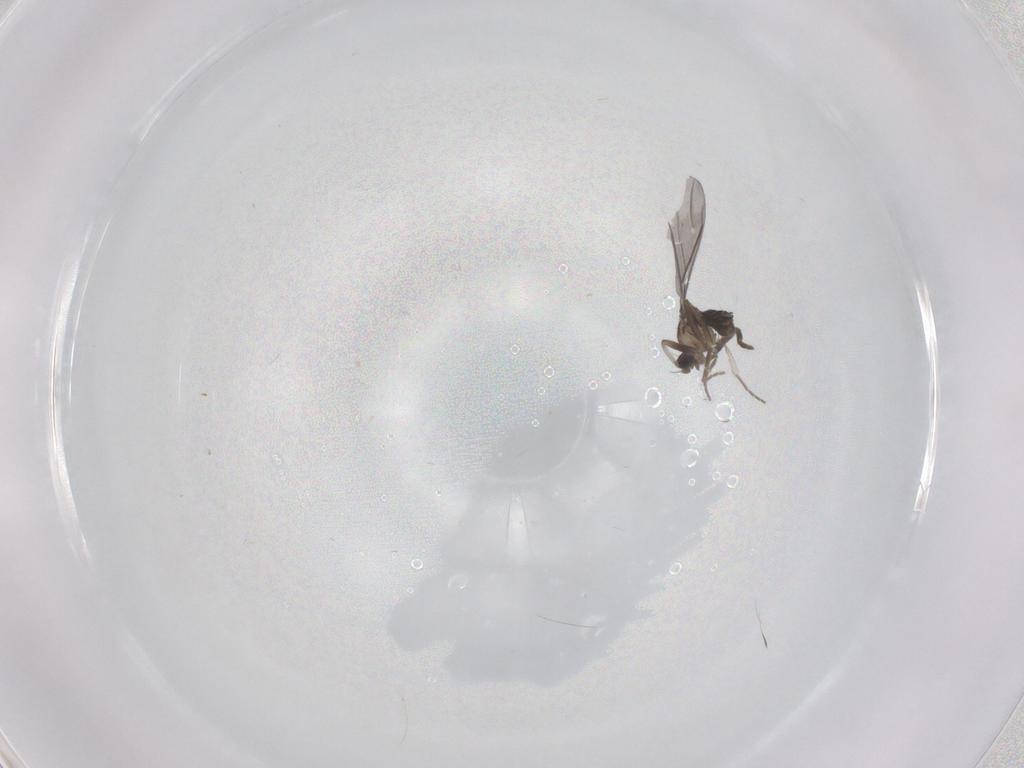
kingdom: Animalia
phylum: Arthropoda
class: Insecta
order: Diptera
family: Phoridae
